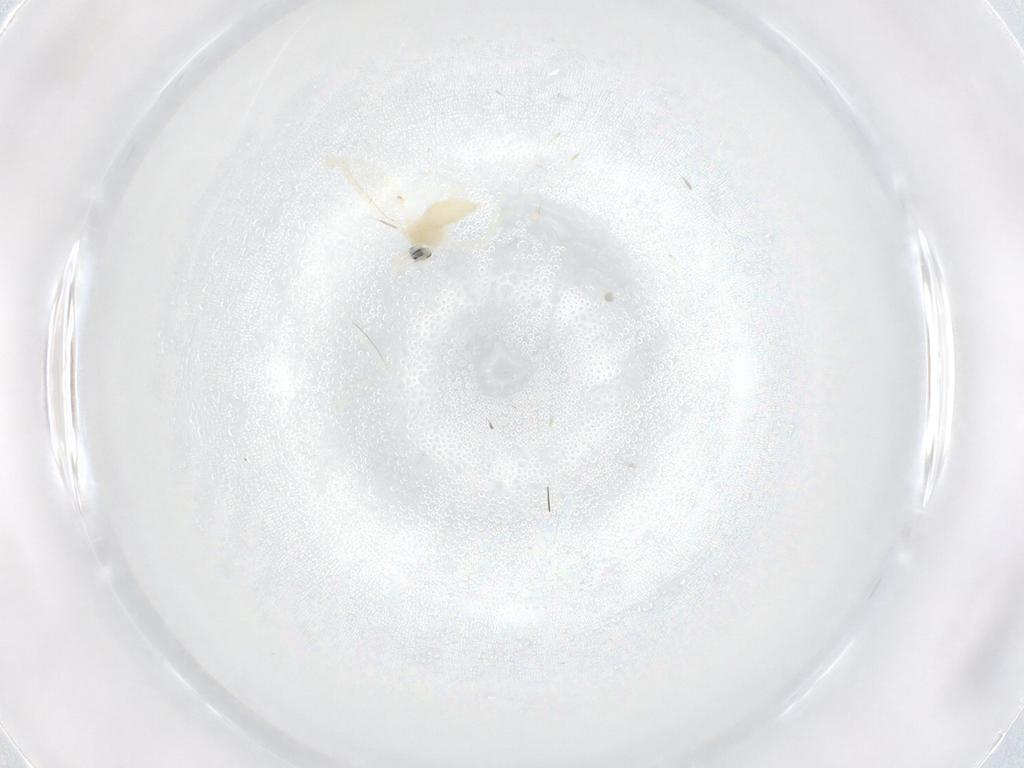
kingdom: Animalia
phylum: Arthropoda
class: Insecta
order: Diptera
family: Cecidomyiidae
